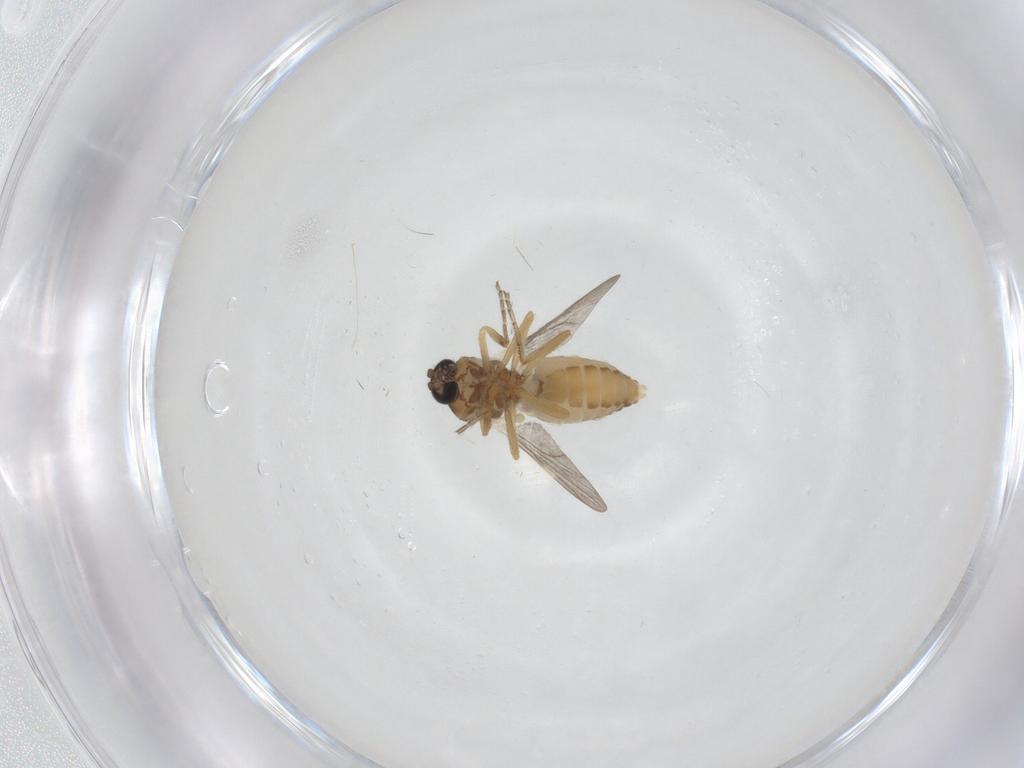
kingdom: Animalia
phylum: Arthropoda
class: Insecta
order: Diptera
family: Ceratopogonidae
